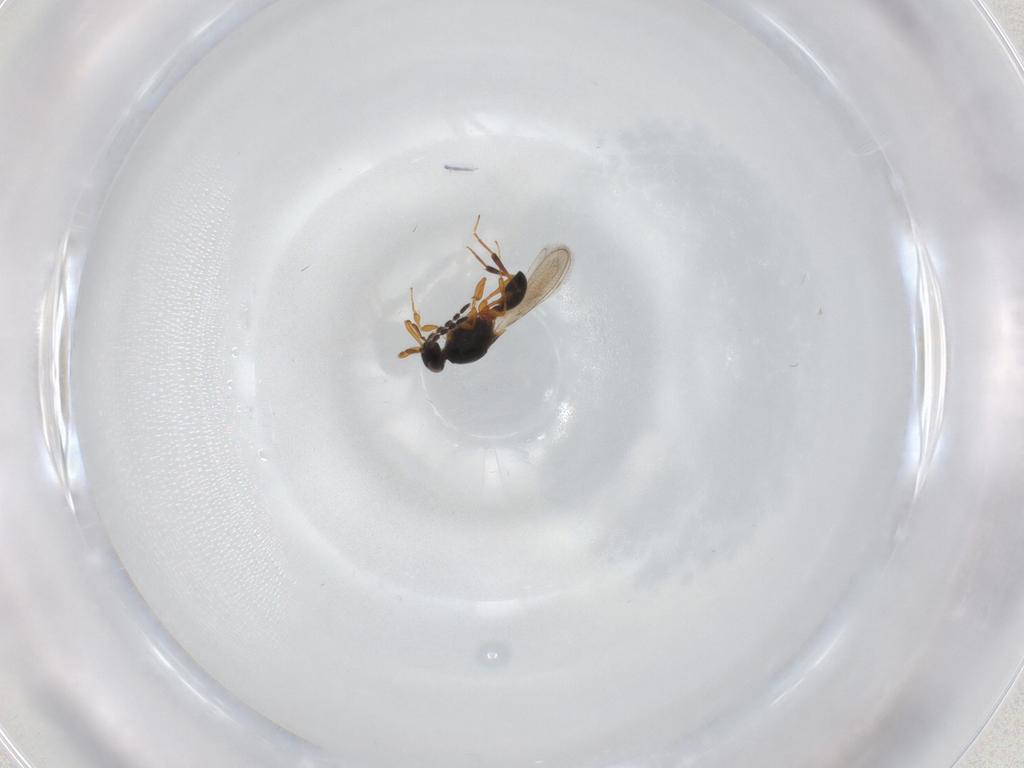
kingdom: Animalia
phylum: Arthropoda
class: Insecta
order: Hymenoptera
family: Platygastridae
